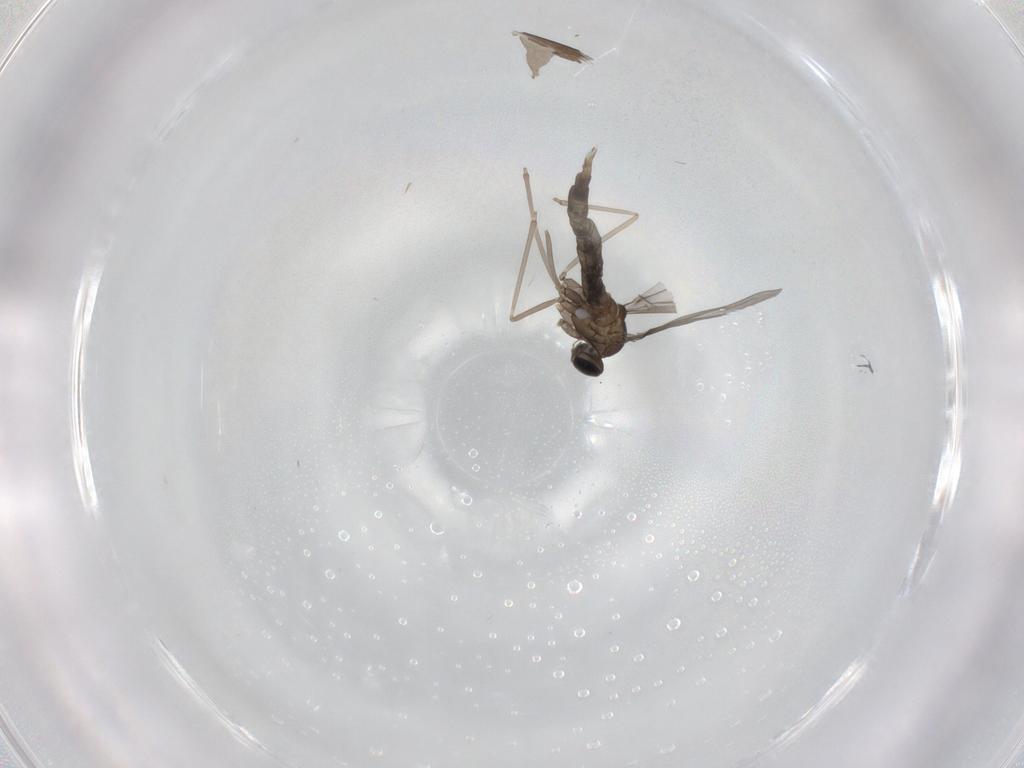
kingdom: Animalia
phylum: Arthropoda
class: Insecta
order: Diptera
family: Cecidomyiidae
